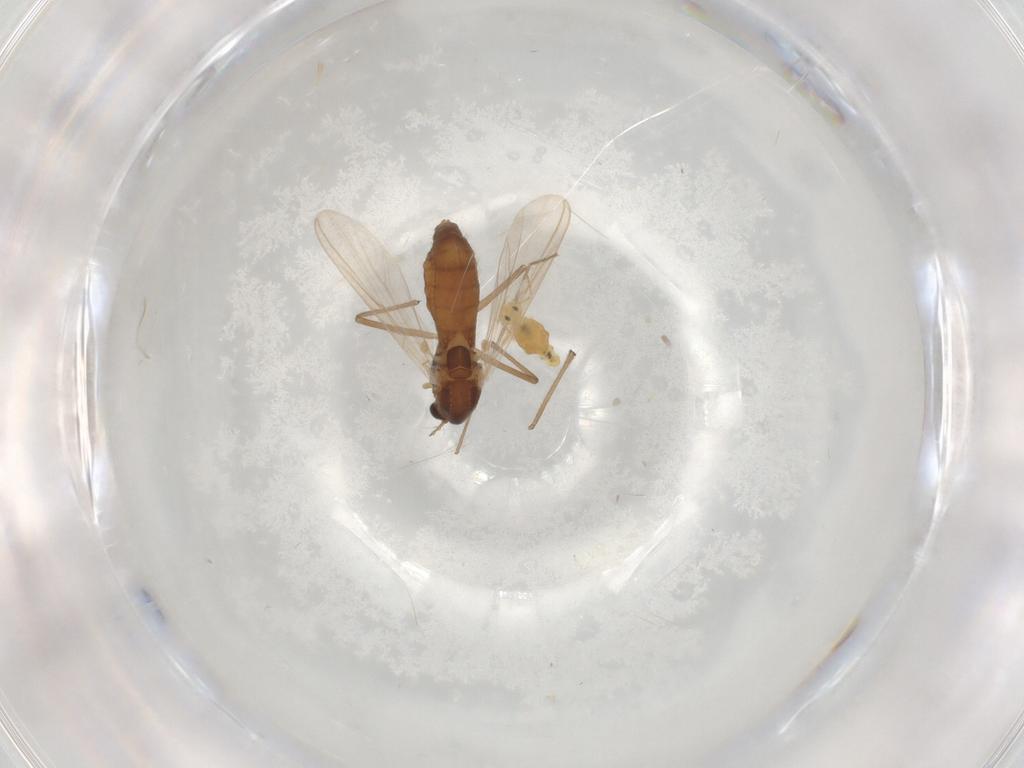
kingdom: Animalia
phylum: Arthropoda
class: Insecta
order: Diptera
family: Chironomidae
